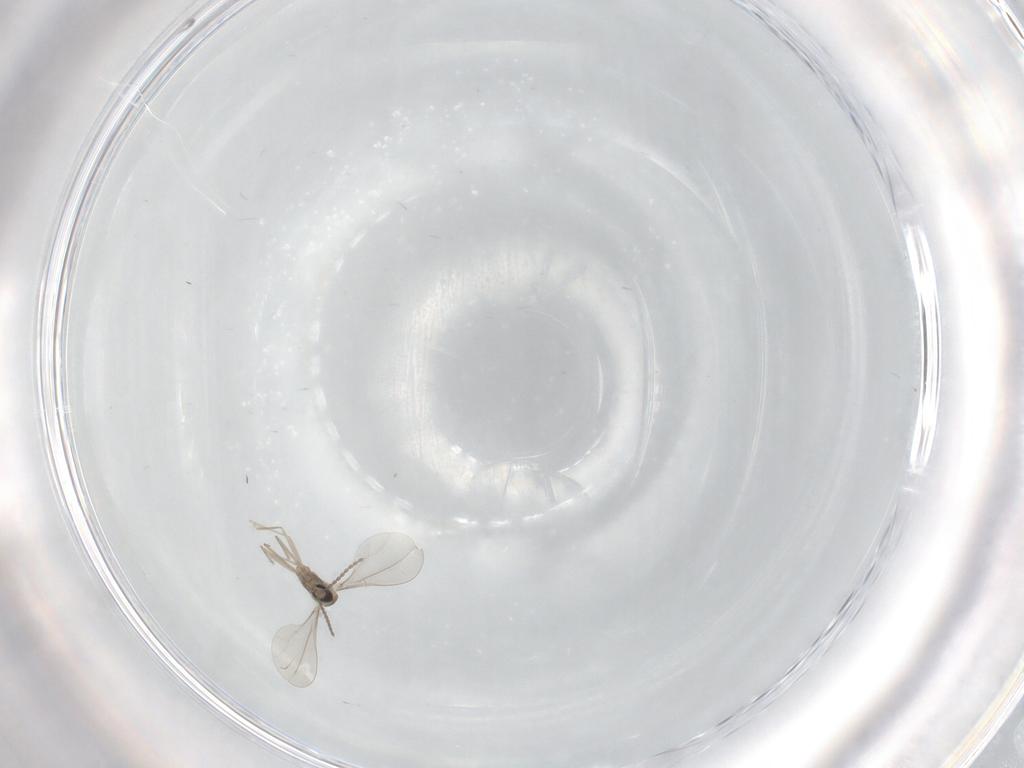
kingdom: Animalia
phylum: Arthropoda
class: Insecta
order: Diptera
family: Cecidomyiidae
